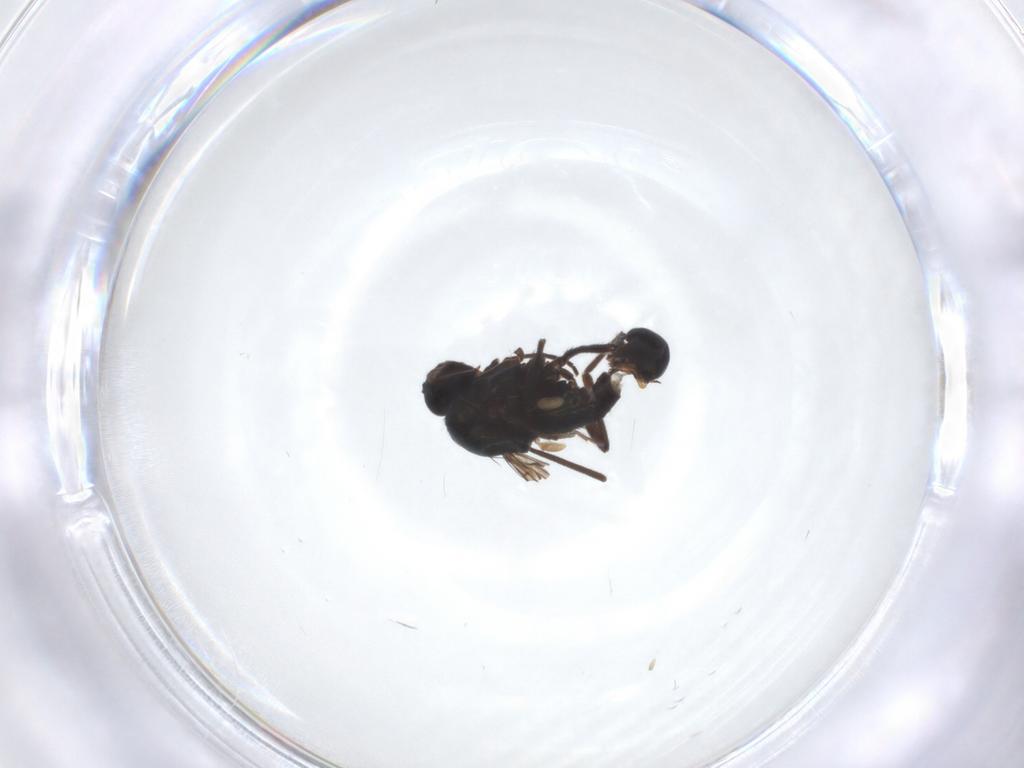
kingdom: Animalia
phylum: Arthropoda
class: Insecta
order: Diptera
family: Dolichopodidae
